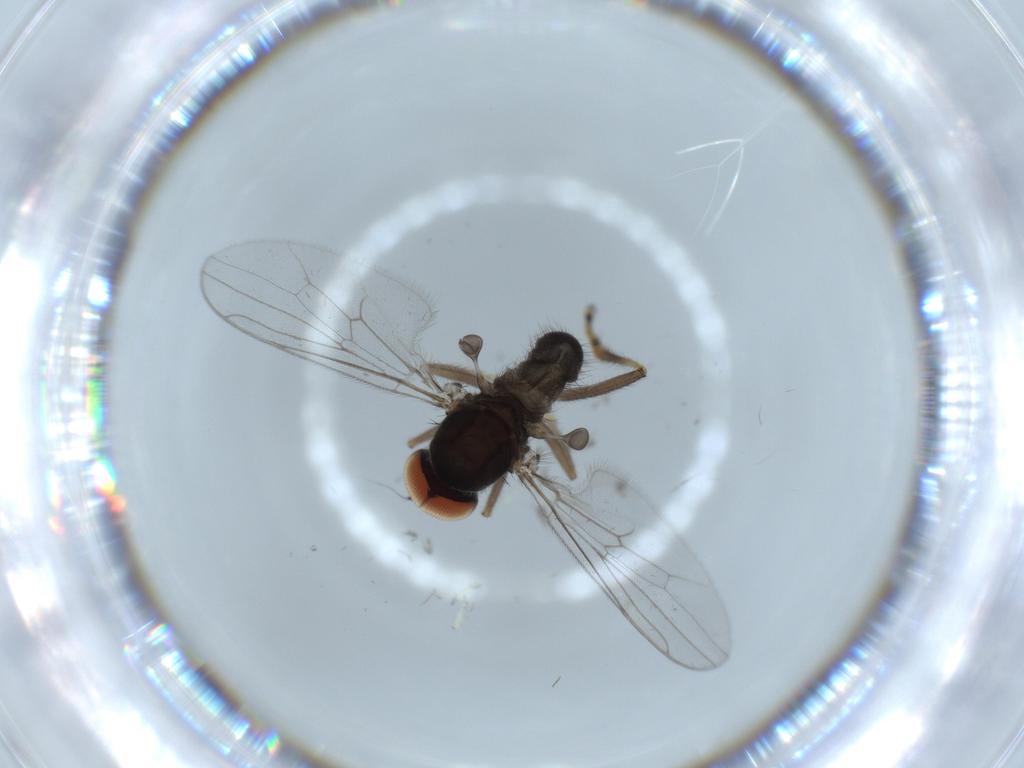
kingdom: Animalia
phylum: Arthropoda
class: Insecta
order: Diptera
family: Hybotidae
